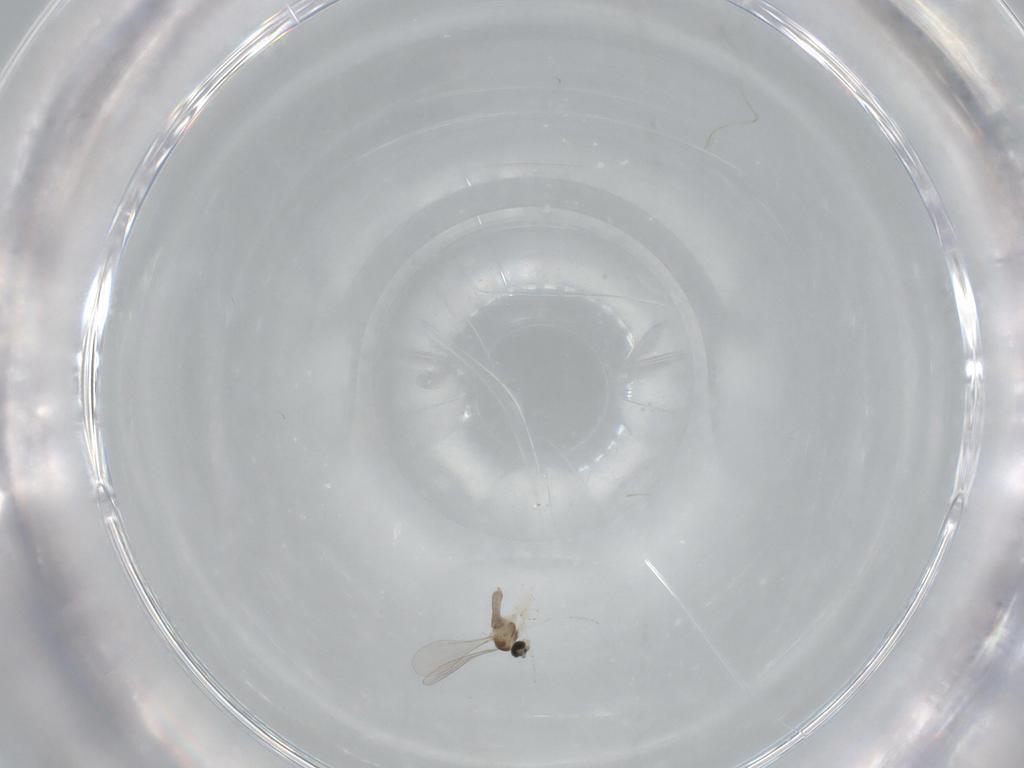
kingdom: Animalia
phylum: Arthropoda
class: Insecta
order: Diptera
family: Sciaridae
